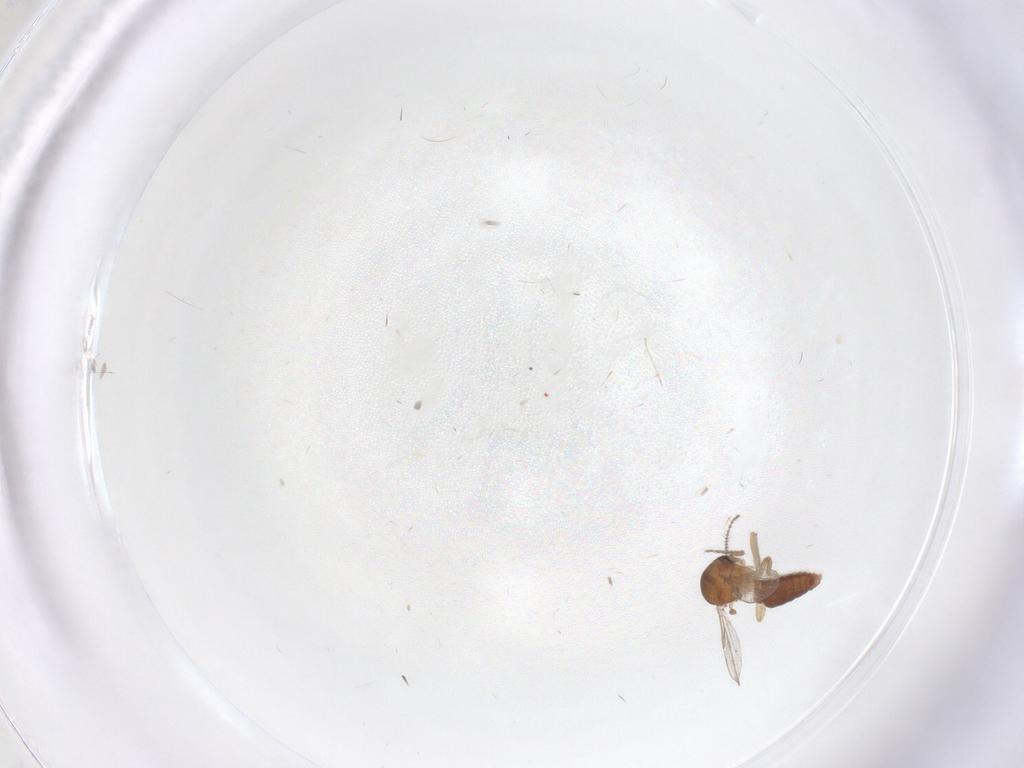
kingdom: Animalia
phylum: Arthropoda
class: Insecta
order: Diptera
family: Ceratopogonidae
